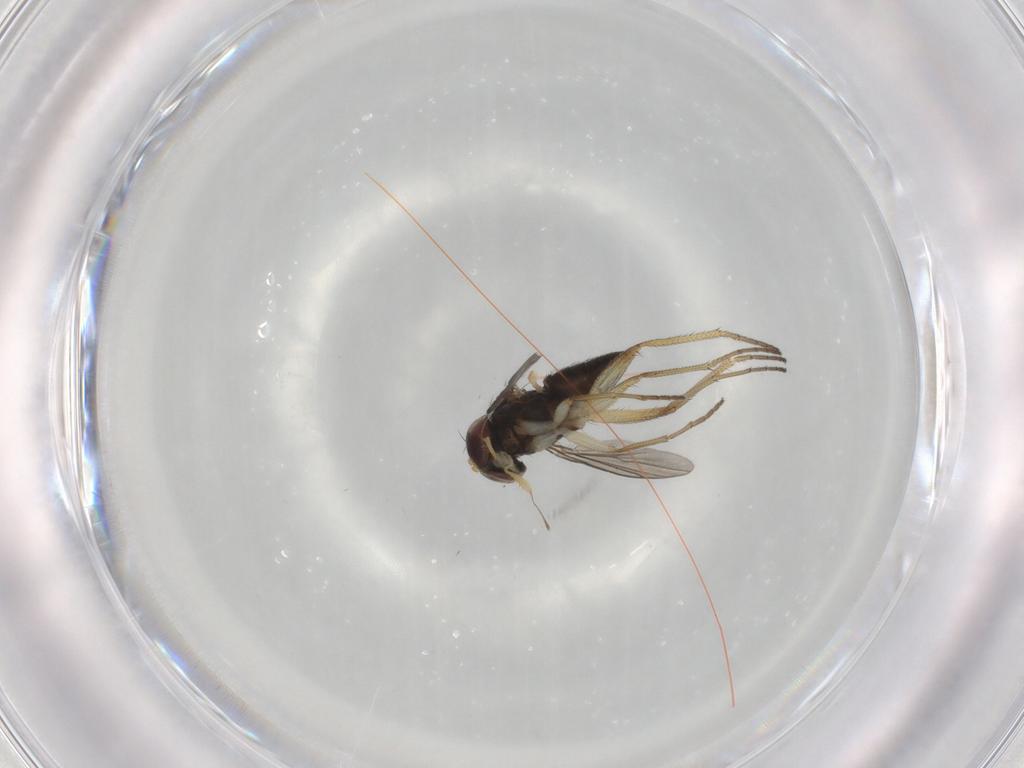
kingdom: Animalia
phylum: Arthropoda
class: Insecta
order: Diptera
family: Dolichopodidae
